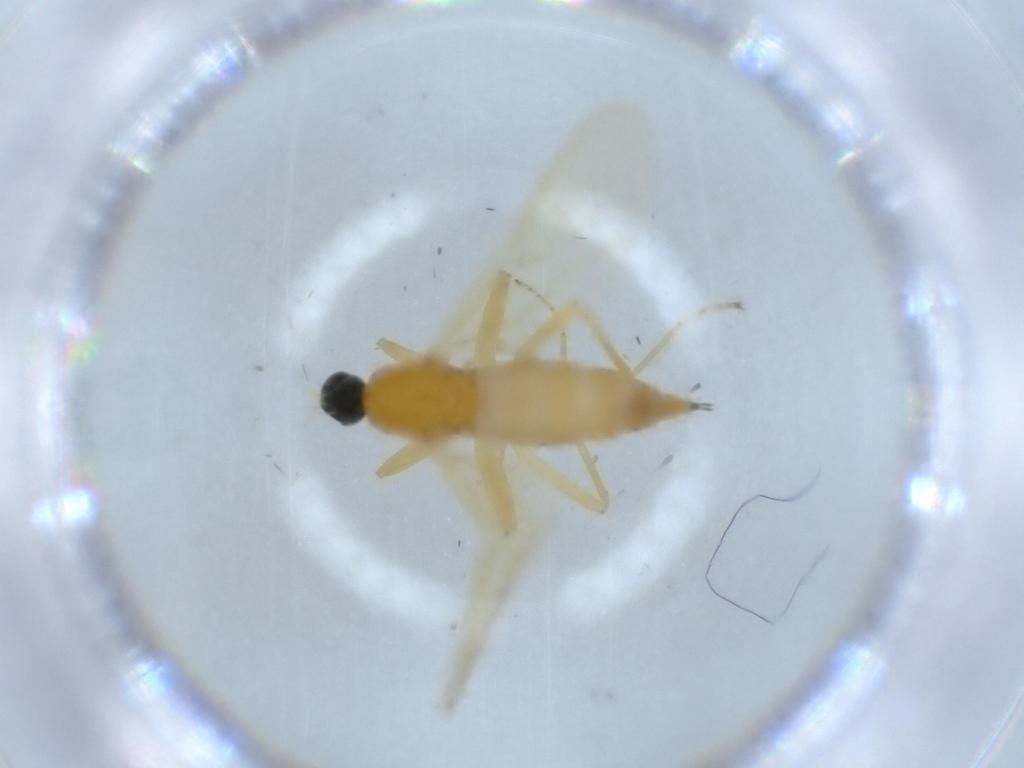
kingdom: Animalia
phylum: Arthropoda
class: Insecta
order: Diptera
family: Hybotidae
